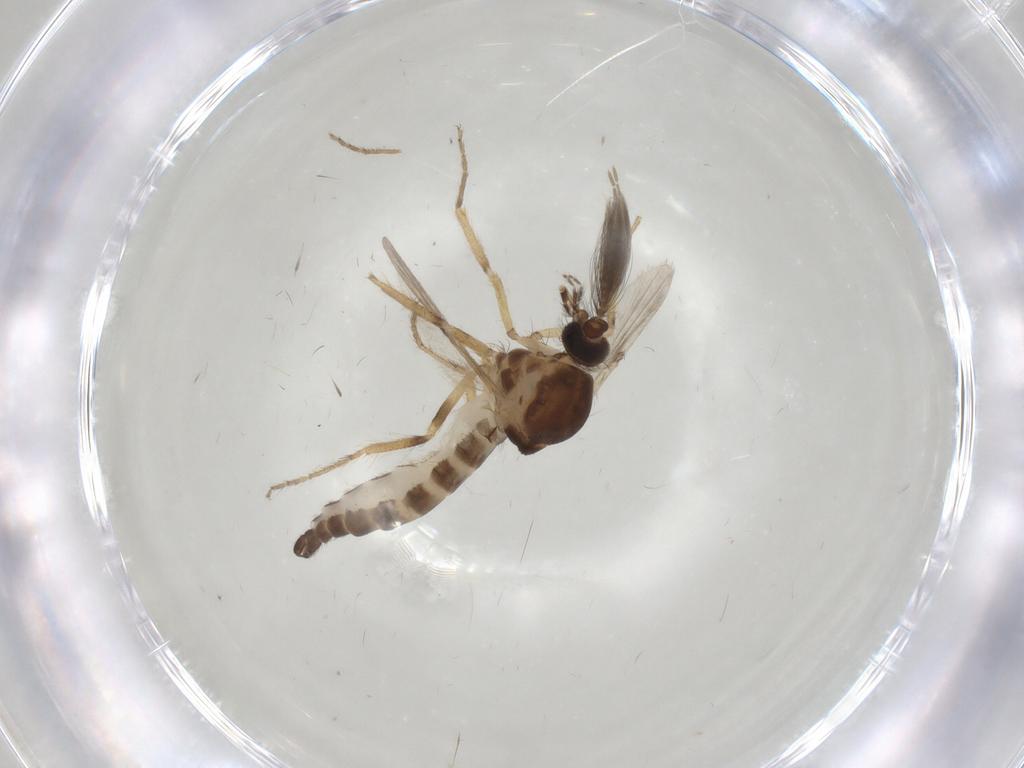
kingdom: Animalia
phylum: Arthropoda
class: Insecta
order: Diptera
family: Ceratopogonidae
